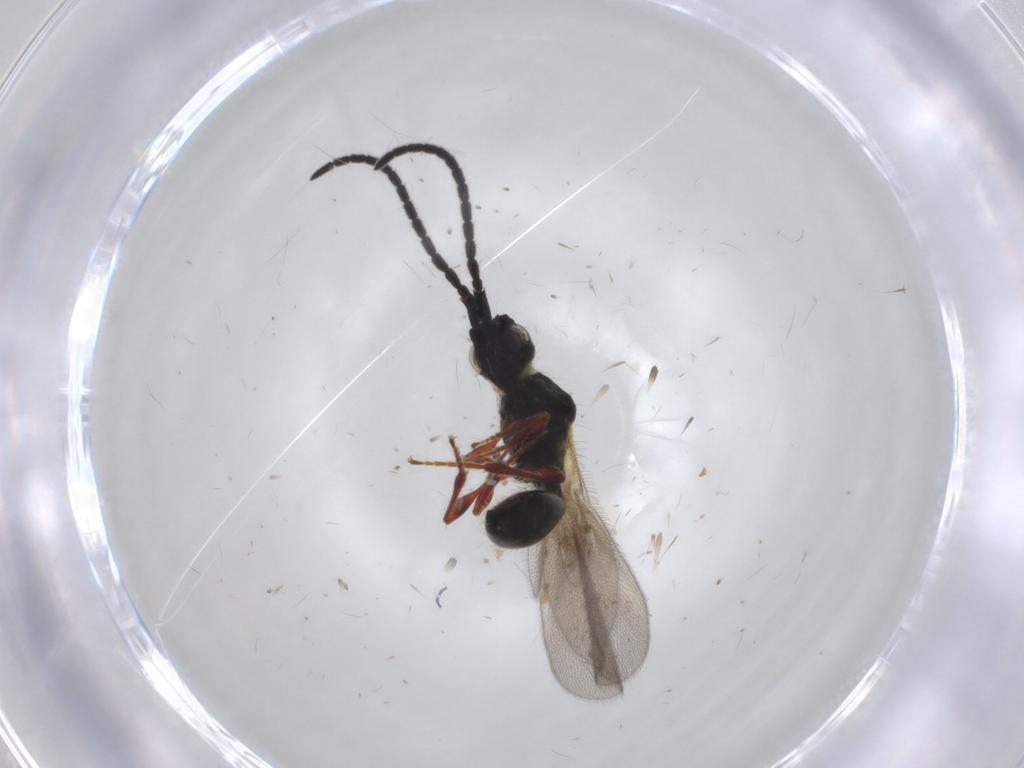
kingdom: Animalia
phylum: Arthropoda
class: Insecta
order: Hymenoptera
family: Diapriidae
